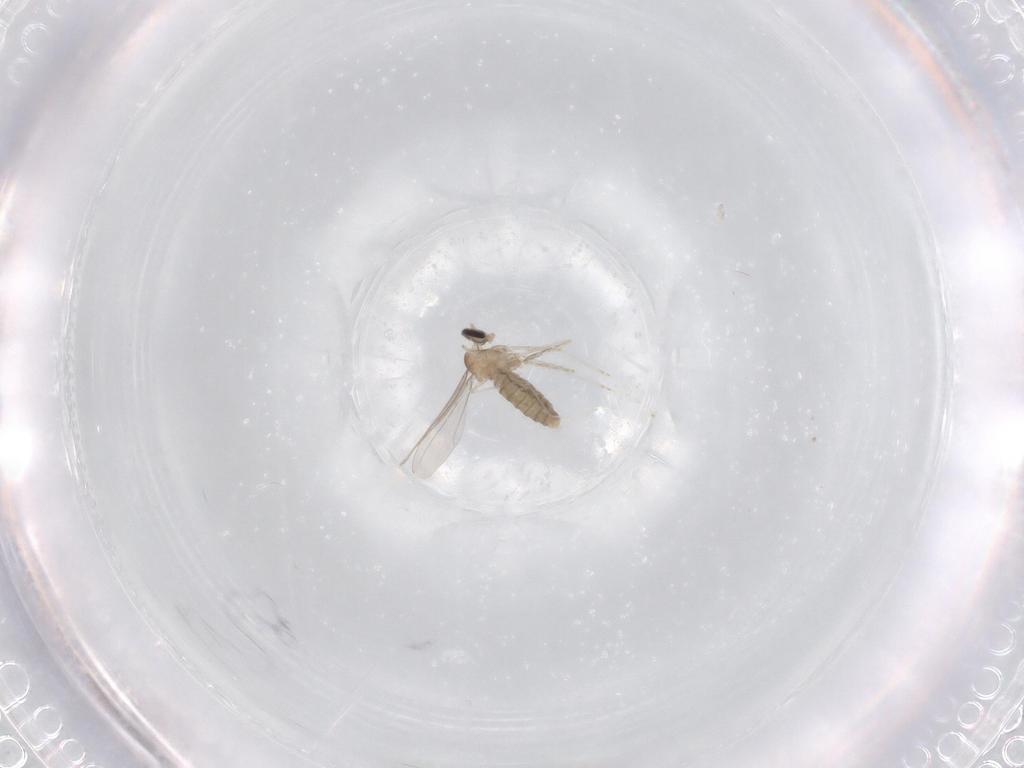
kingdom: Animalia
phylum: Arthropoda
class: Insecta
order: Diptera
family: Cecidomyiidae
